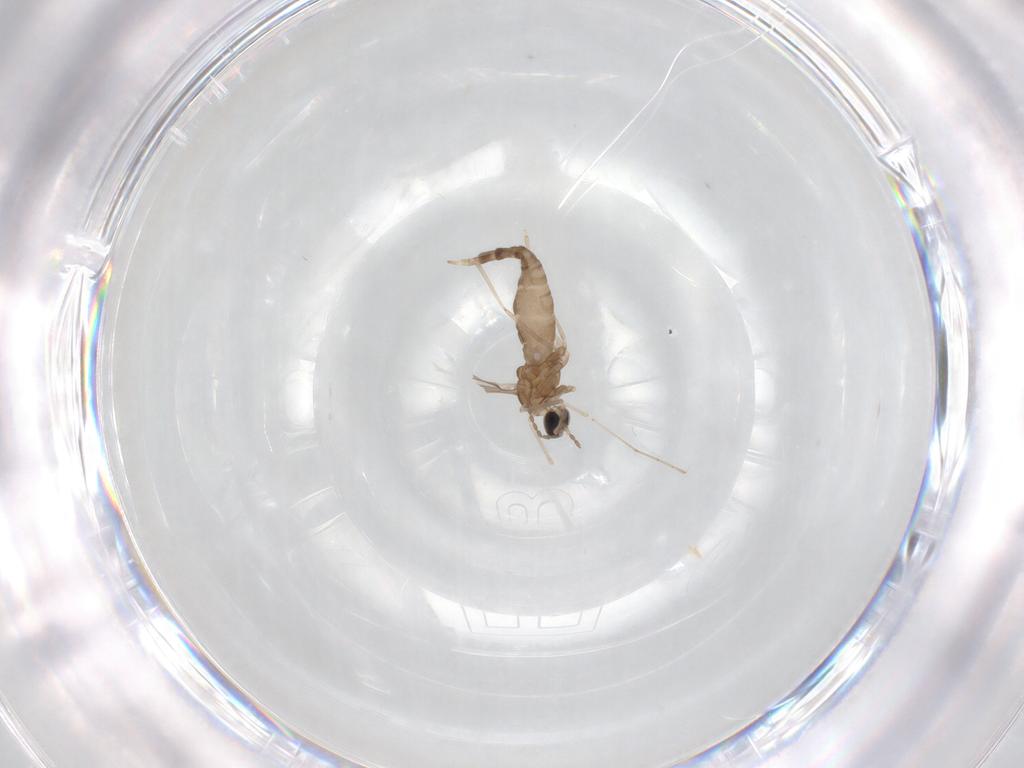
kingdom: Animalia
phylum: Arthropoda
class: Insecta
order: Diptera
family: Cecidomyiidae
